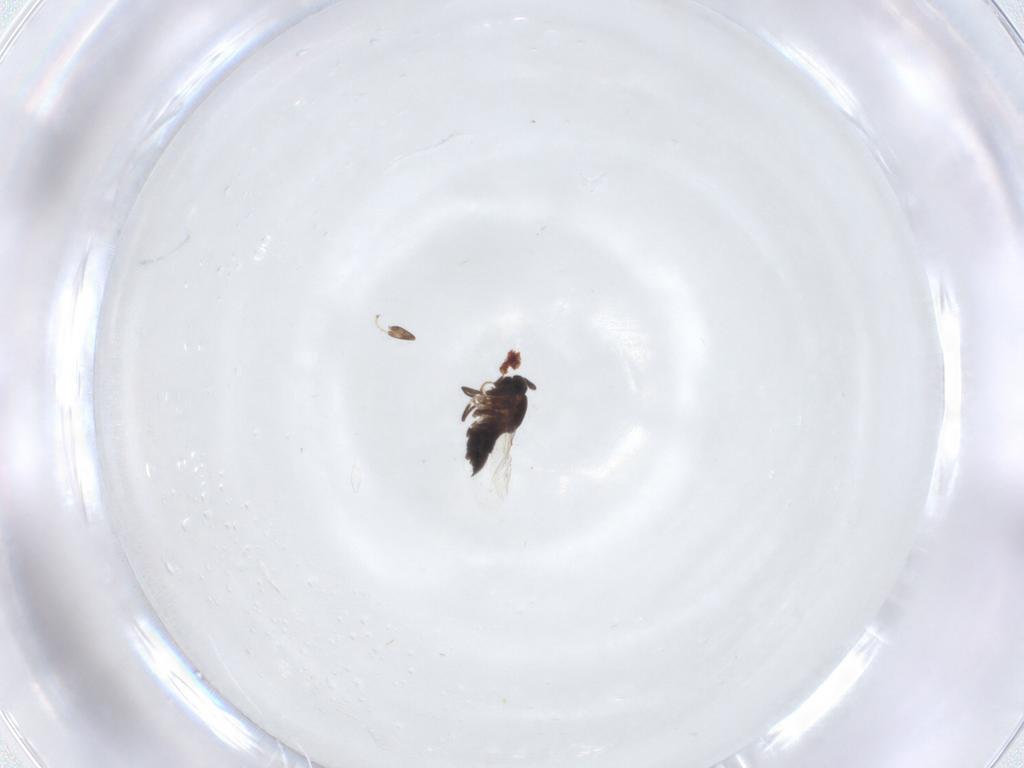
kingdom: Animalia
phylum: Arthropoda
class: Insecta
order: Diptera
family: Scatopsidae
